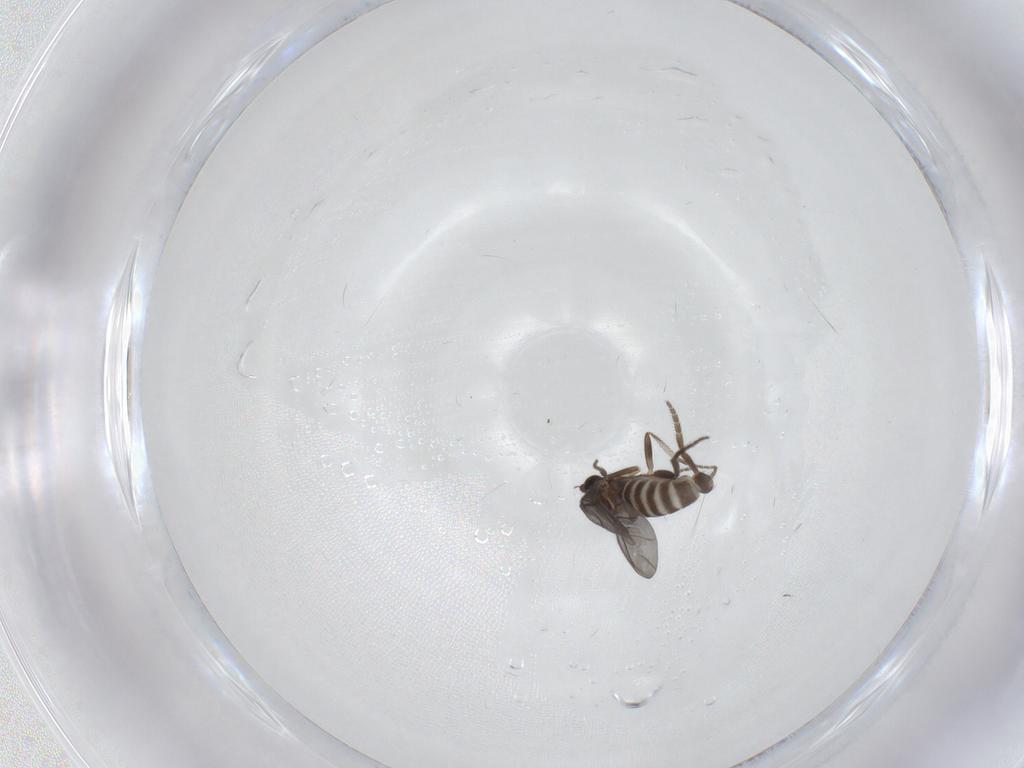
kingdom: Animalia
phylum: Arthropoda
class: Insecta
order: Diptera
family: Phoridae
